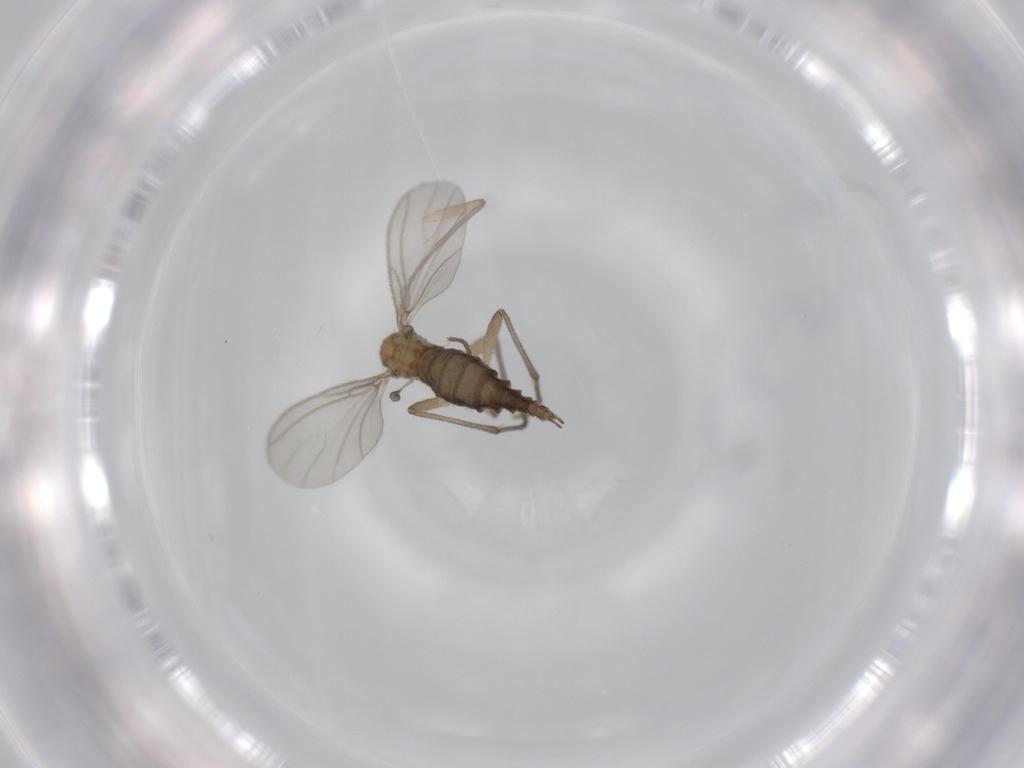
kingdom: Animalia
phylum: Arthropoda
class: Insecta
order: Diptera
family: Sciaridae
